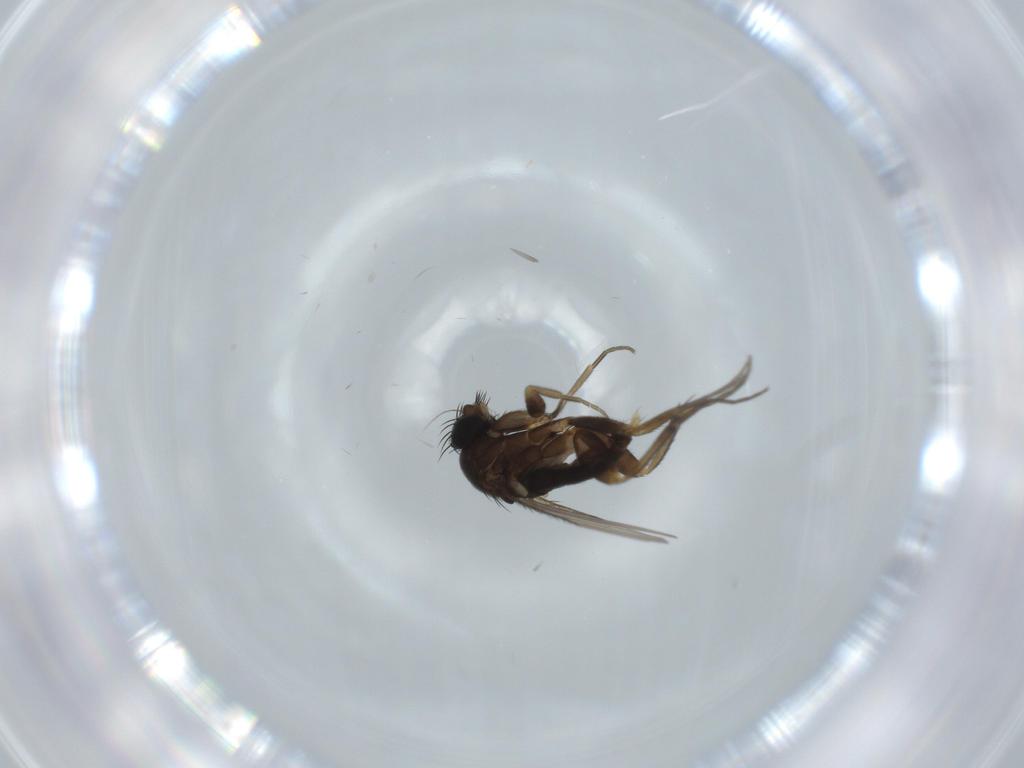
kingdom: Animalia
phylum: Arthropoda
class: Insecta
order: Diptera
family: Phoridae
